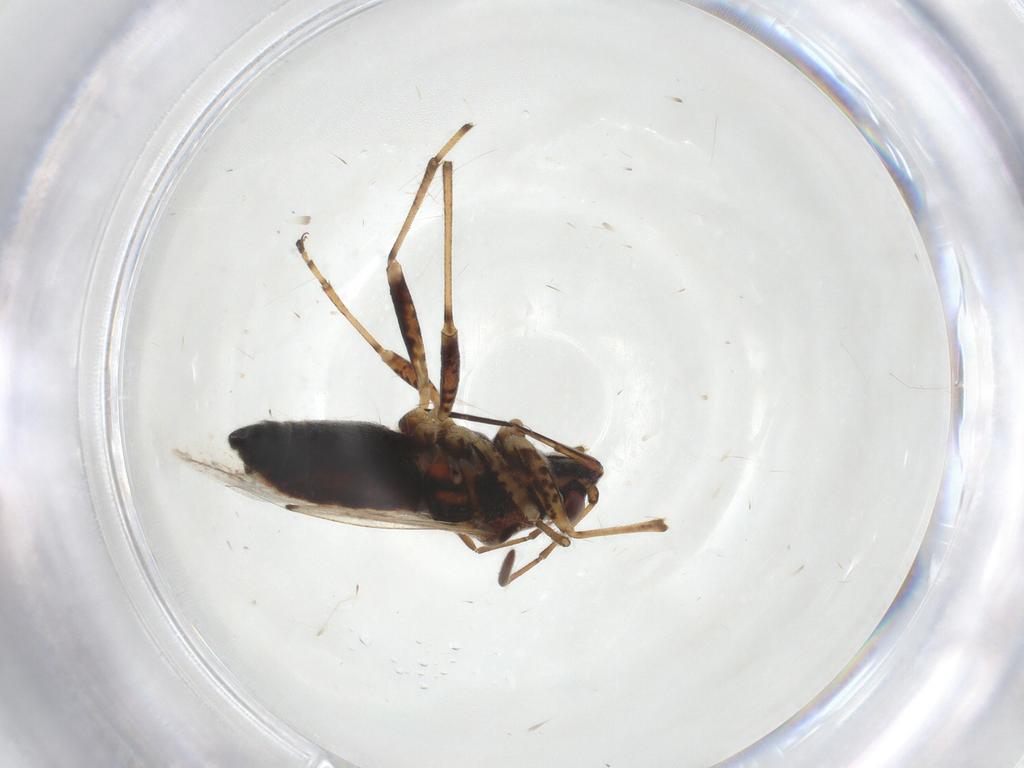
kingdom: Animalia
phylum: Arthropoda
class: Insecta
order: Hemiptera
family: Lygaeidae
